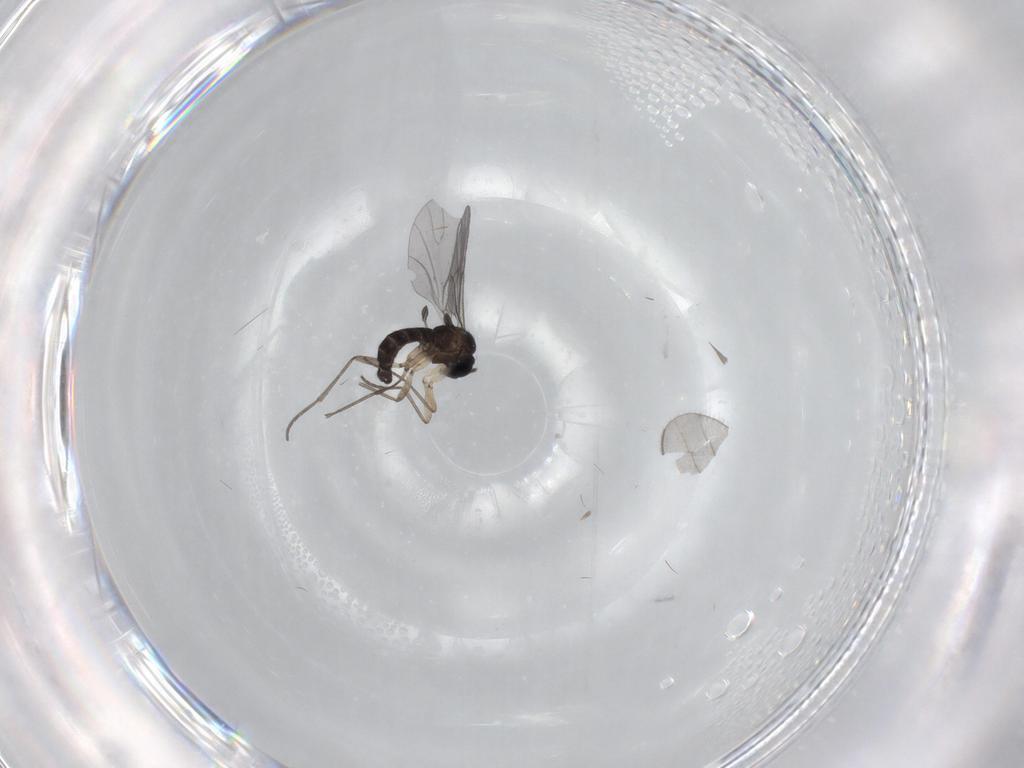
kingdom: Animalia
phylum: Arthropoda
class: Insecta
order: Diptera
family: Sciaridae
